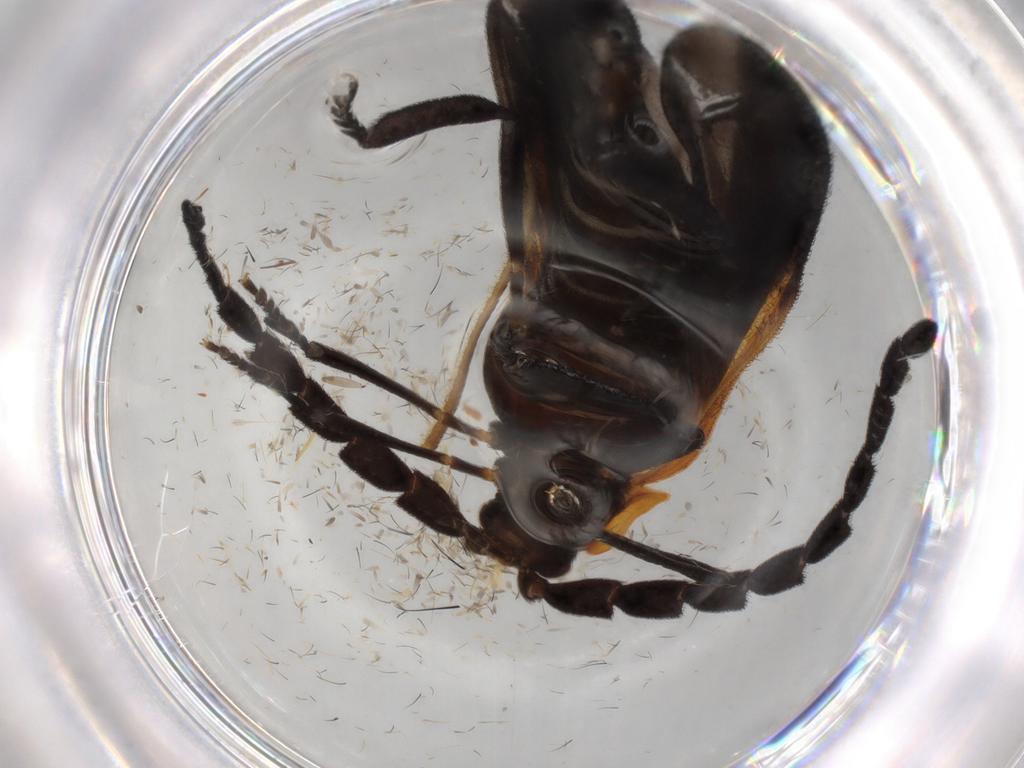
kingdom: Animalia
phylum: Arthropoda
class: Insecta
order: Coleoptera
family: Lycidae
